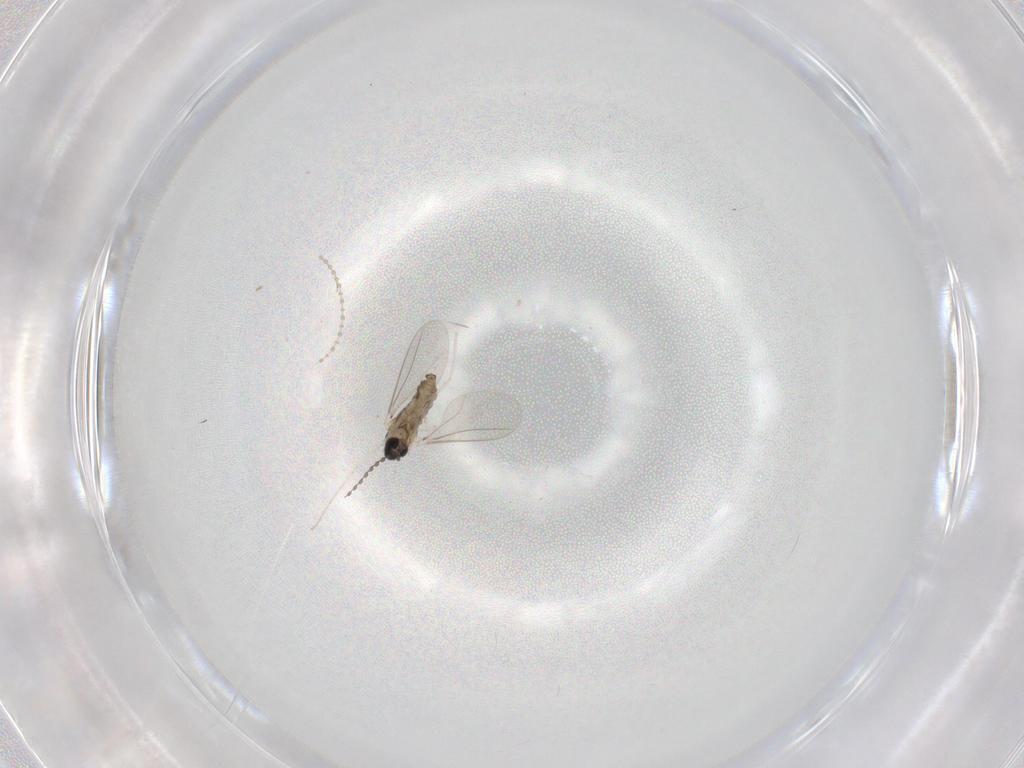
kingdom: Animalia
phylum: Arthropoda
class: Insecta
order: Diptera
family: Cecidomyiidae
